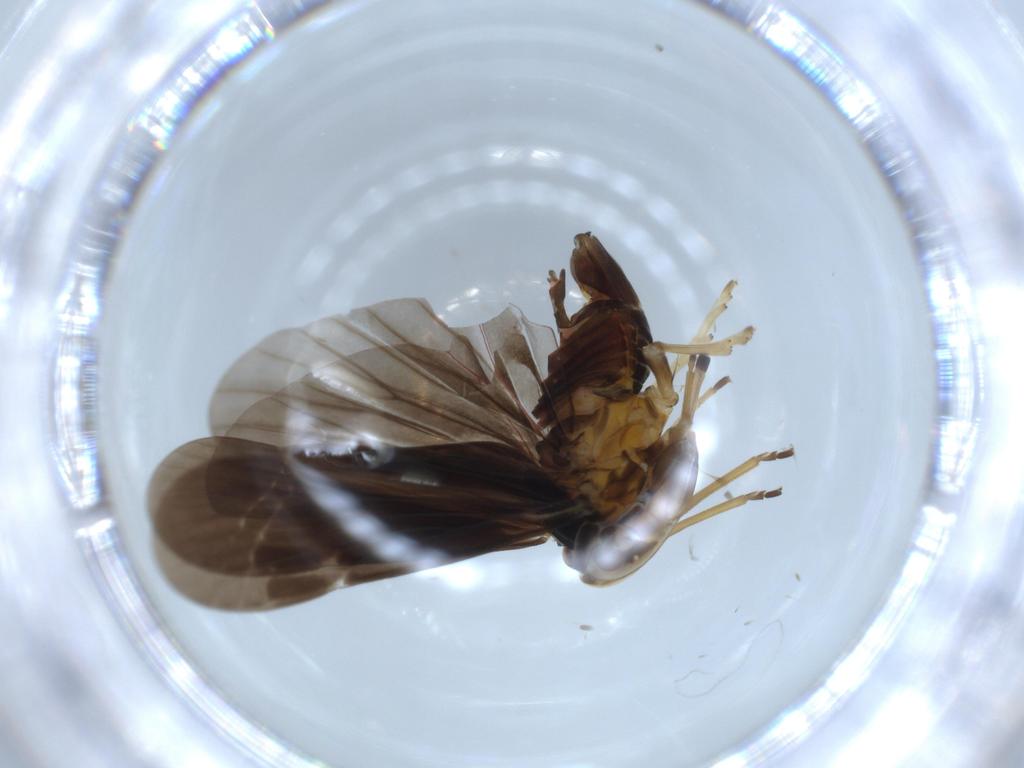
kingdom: Animalia
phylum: Arthropoda
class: Insecta
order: Hemiptera
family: Derbidae
